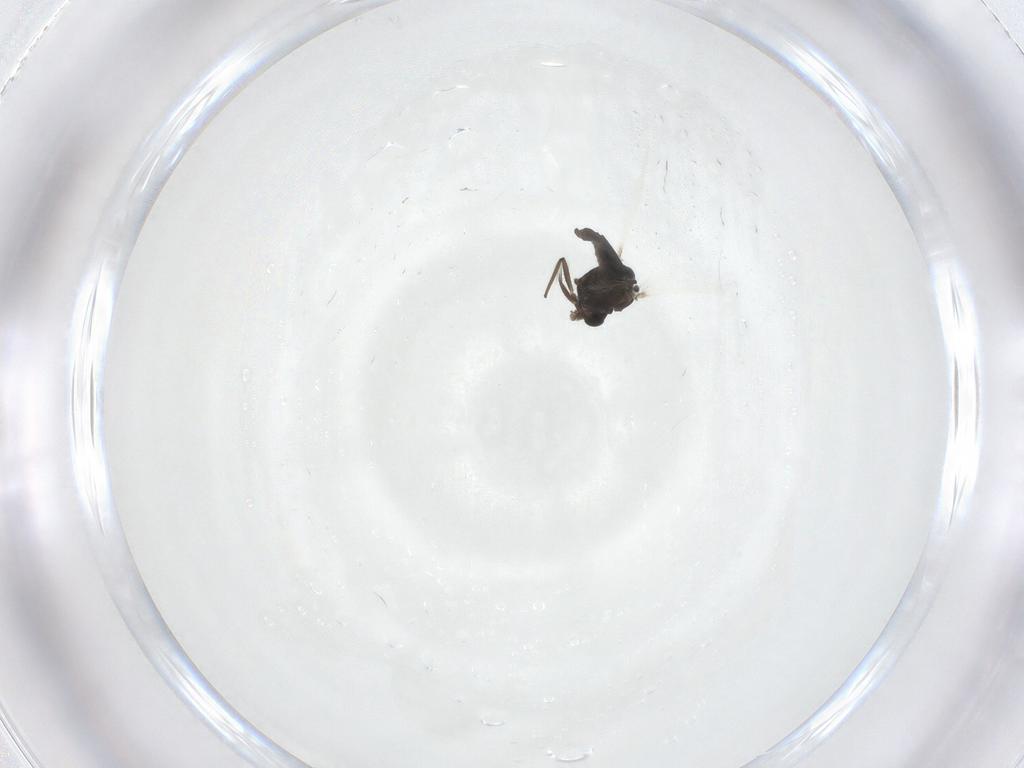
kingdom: Animalia
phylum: Arthropoda
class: Insecta
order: Diptera
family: Chironomidae
